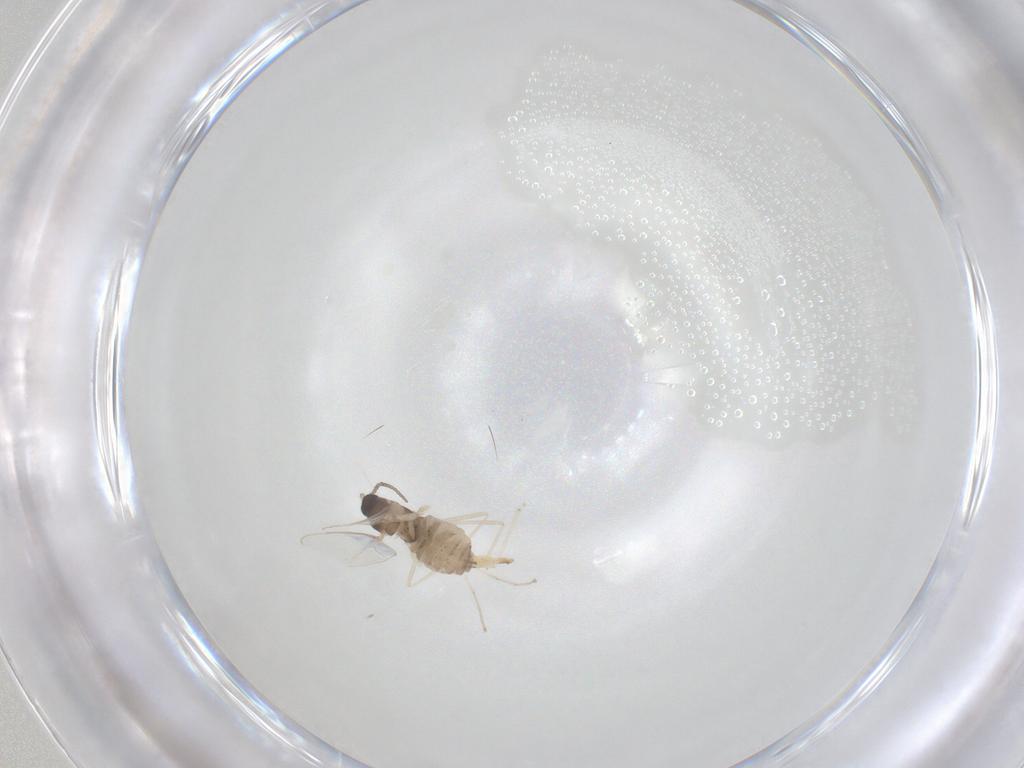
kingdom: Animalia
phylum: Arthropoda
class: Insecta
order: Diptera
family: Cecidomyiidae
